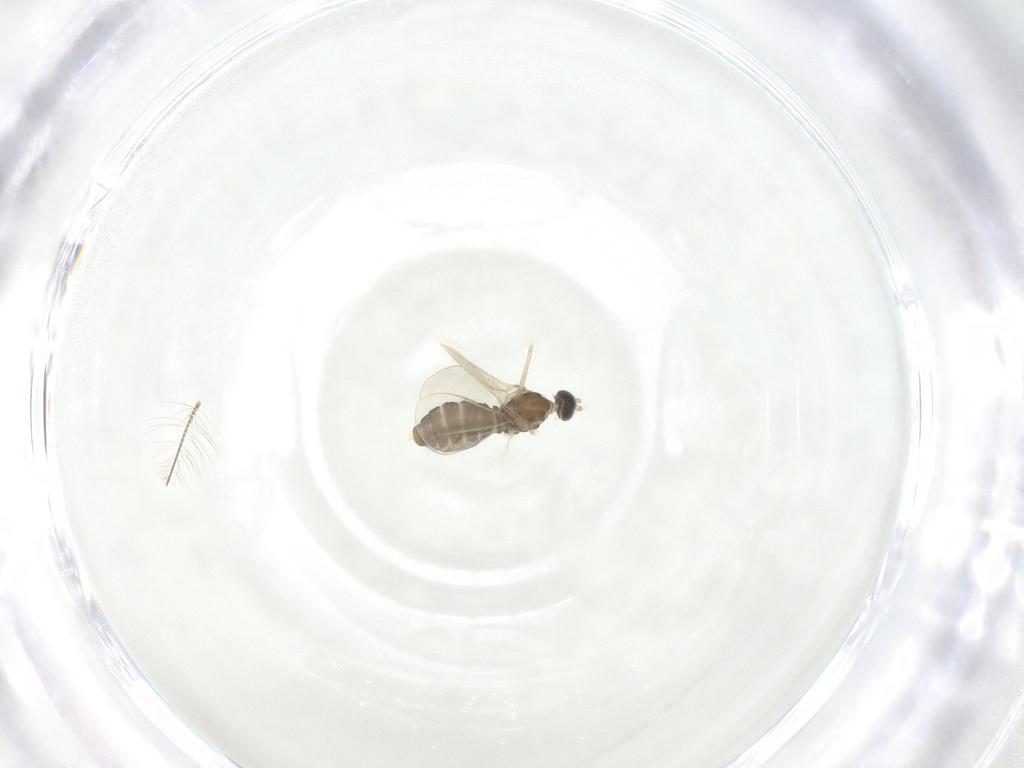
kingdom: Animalia
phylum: Arthropoda
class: Insecta
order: Diptera
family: Cecidomyiidae
